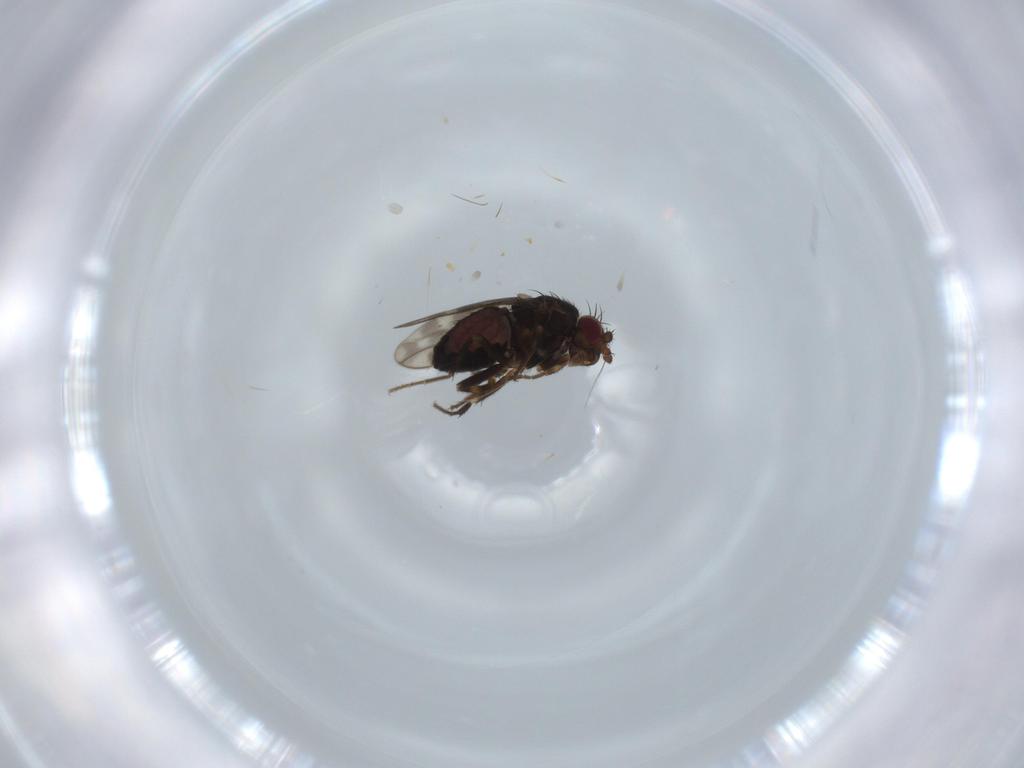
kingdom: Animalia
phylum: Arthropoda
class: Insecta
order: Diptera
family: Sphaeroceridae
